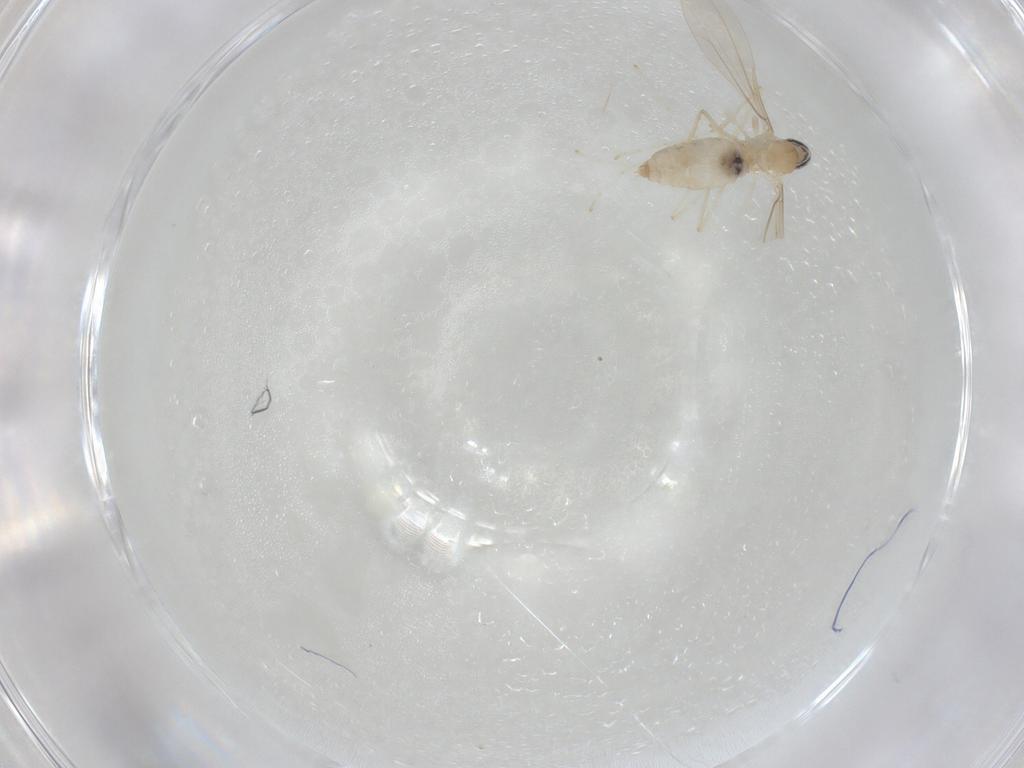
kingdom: Animalia
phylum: Arthropoda
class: Insecta
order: Diptera
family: Cecidomyiidae
